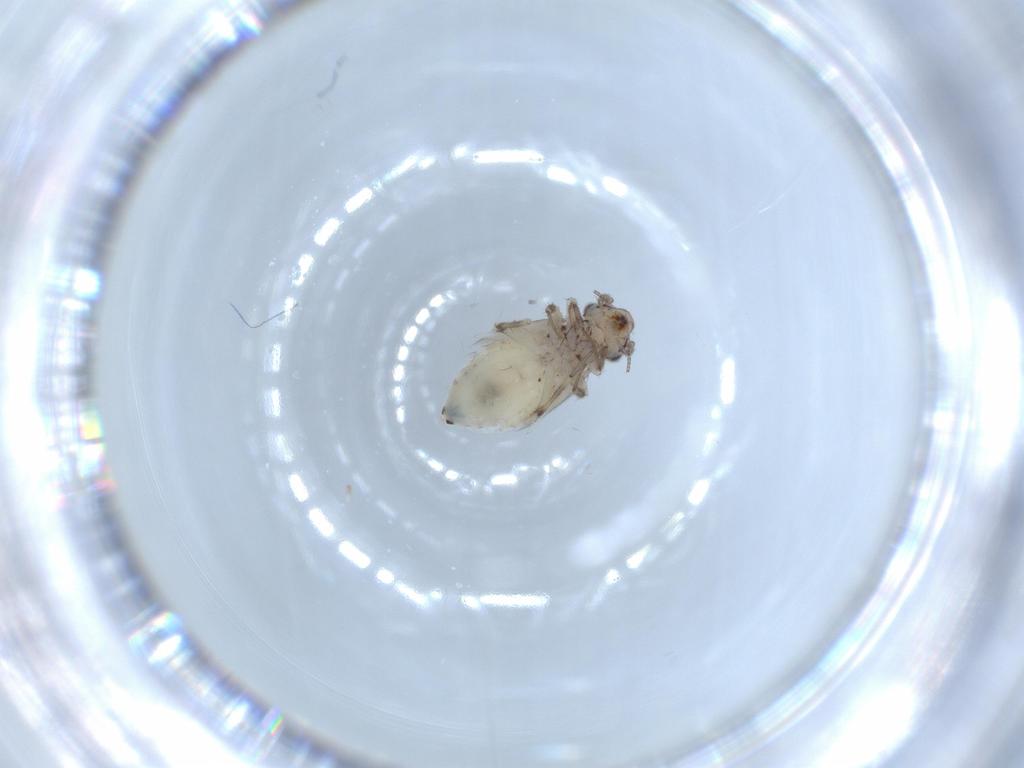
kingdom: Animalia
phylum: Arthropoda
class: Insecta
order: Psocodea
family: Lepidopsocidae
